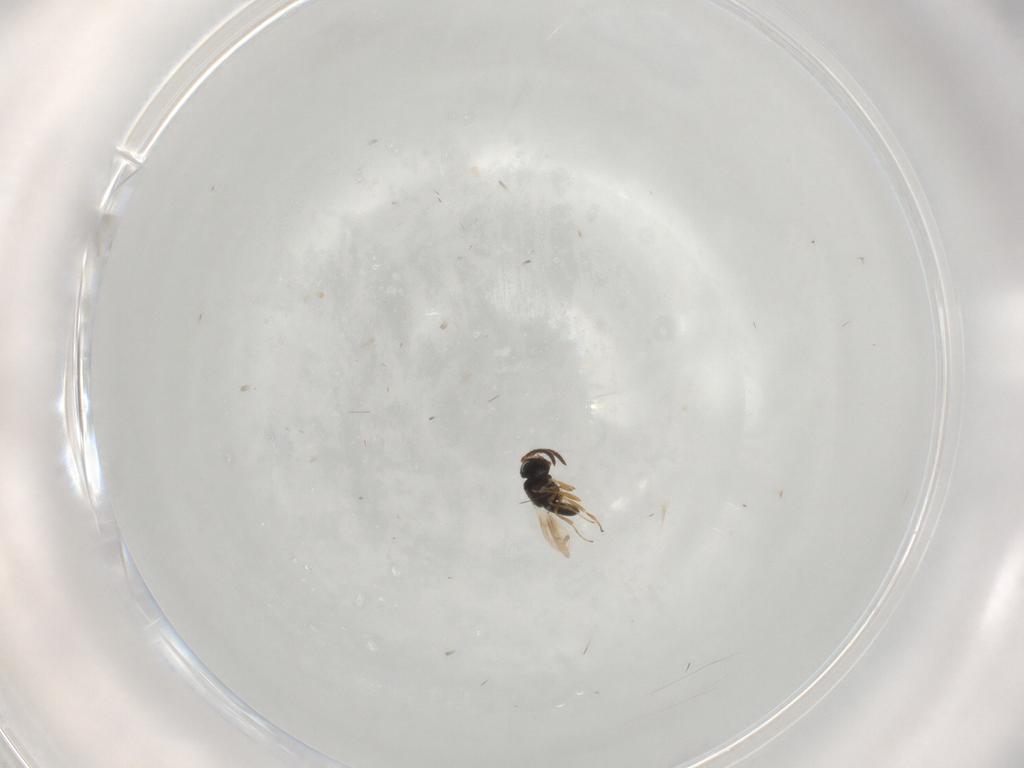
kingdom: Animalia
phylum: Arthropoda
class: Insecta
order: Hymenoptera
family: Scelionidae
